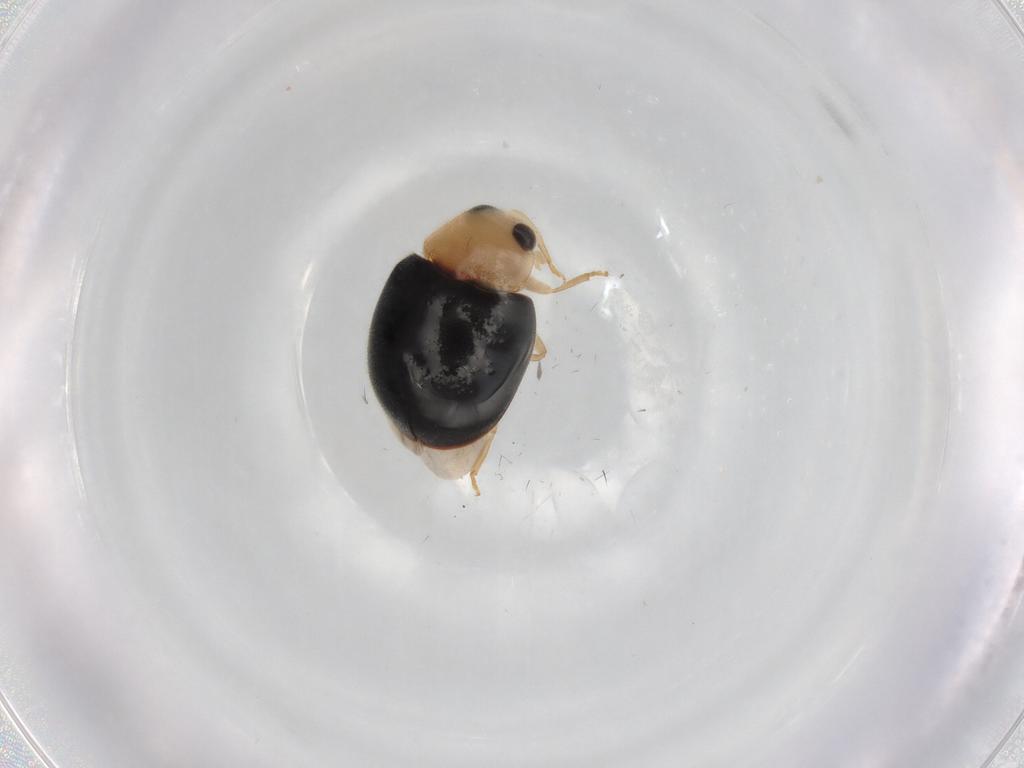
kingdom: Animalia
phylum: Arthropoda
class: Insecta
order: Coleoptera
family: Coccinellidae
